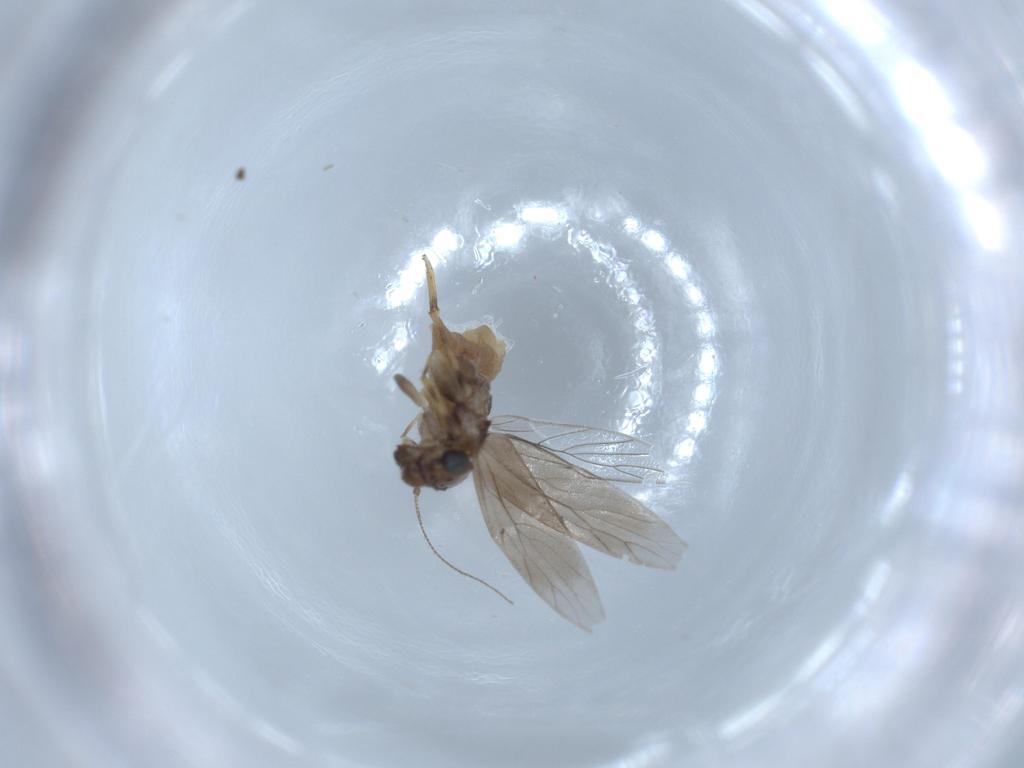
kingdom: Animalia
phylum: Arthropoda
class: Insecta
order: Psocodea
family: Lepidopsocidae
